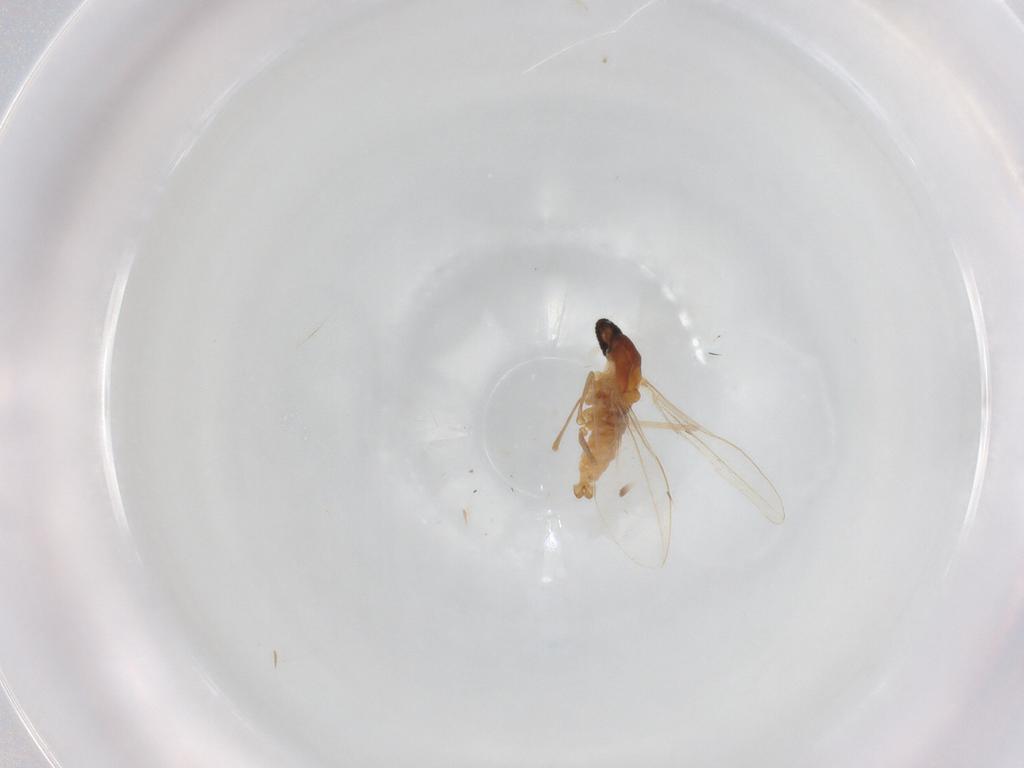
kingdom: Animalia
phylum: Arthropoda
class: Insecta
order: Diptera
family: Cecidomyiidae
